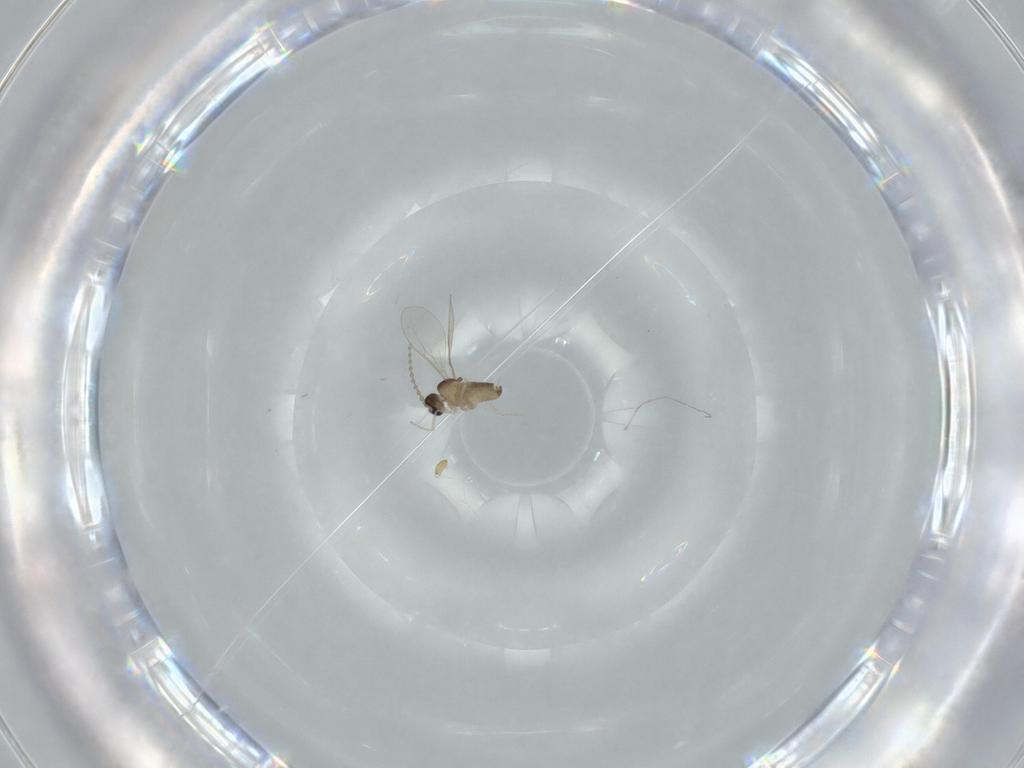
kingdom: Animalia
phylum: Arthropoda
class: Insecta
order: Diptera
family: Cecidomyiidae
